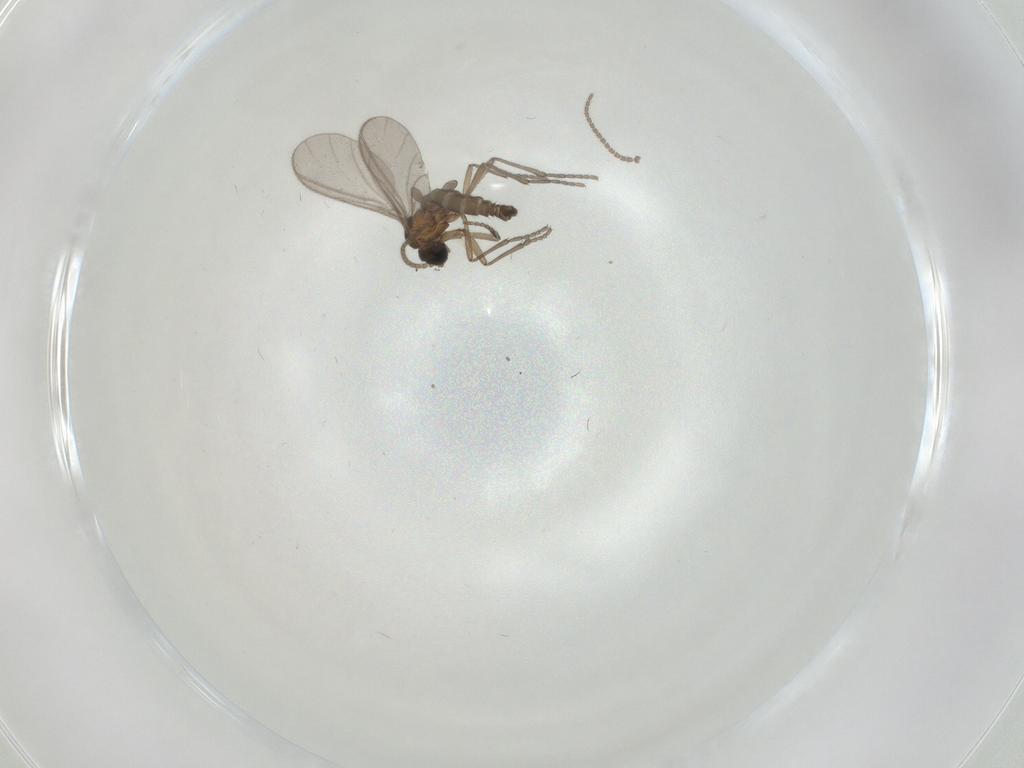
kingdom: Animalia
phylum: Arthropoda
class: Insecta
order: Diptera
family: Sciaridae
